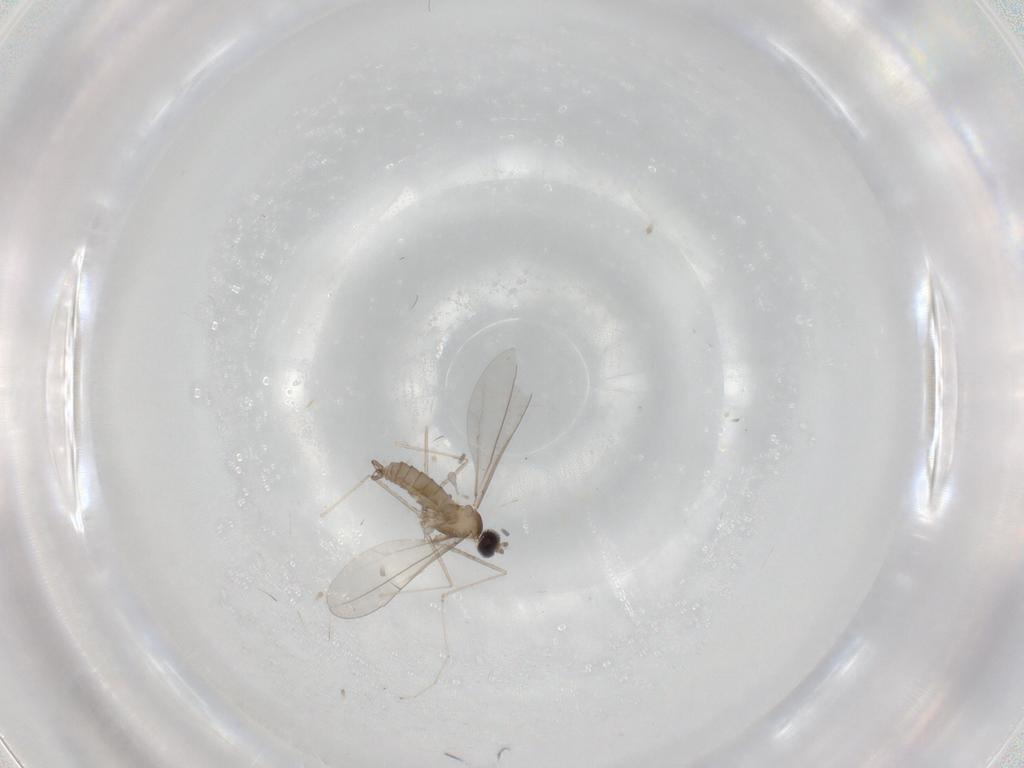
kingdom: Animalia
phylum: Arthropoda
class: Insecta
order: Diptera
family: Cecidomyiidae
